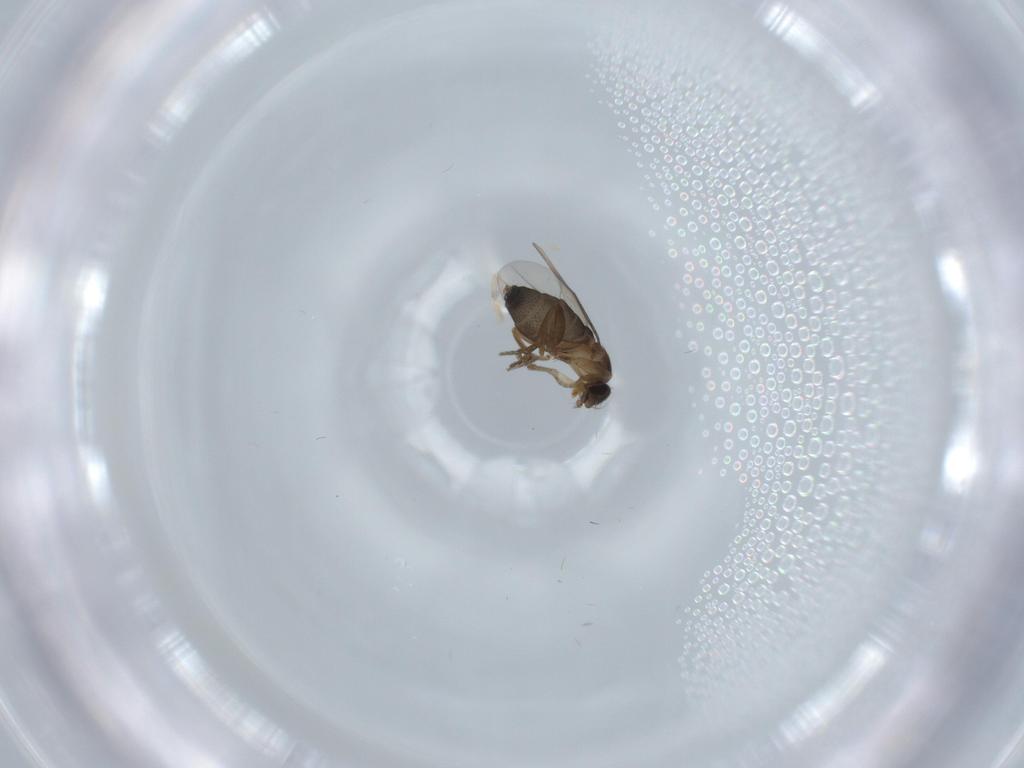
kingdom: Animalia
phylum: Arthropoda
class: Insecta
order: Diptera
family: Phoridae
